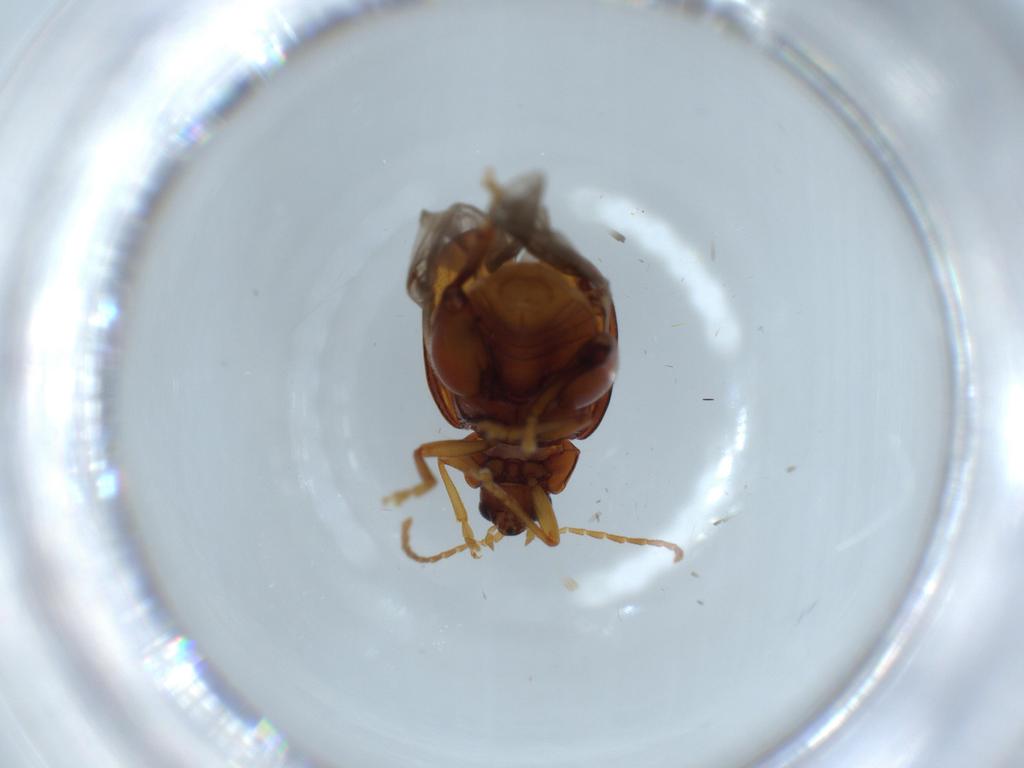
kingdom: Animalia
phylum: Arthropoda
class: Insecta
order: Coleoptera
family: Chrysomelidae
